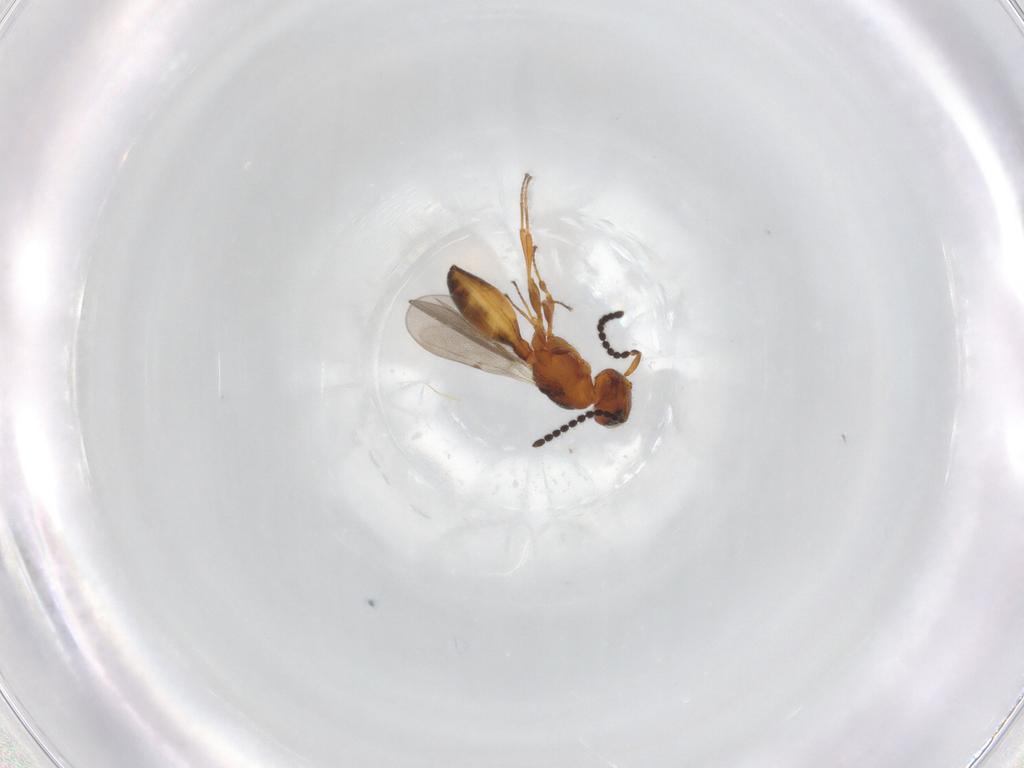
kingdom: Animalia
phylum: Arthropoda
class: Insecta
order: Hymenoptera
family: Scelionidae
